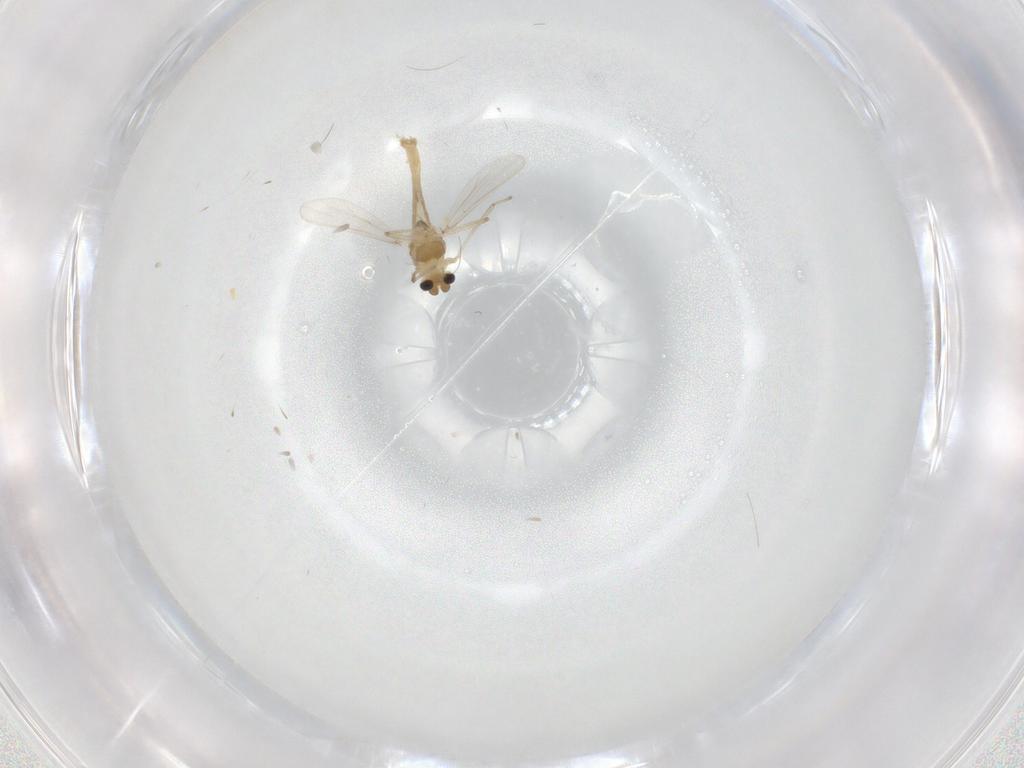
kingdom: Animalia
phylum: Arthropoda
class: Insecta
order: Diptera
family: Chironomidae
